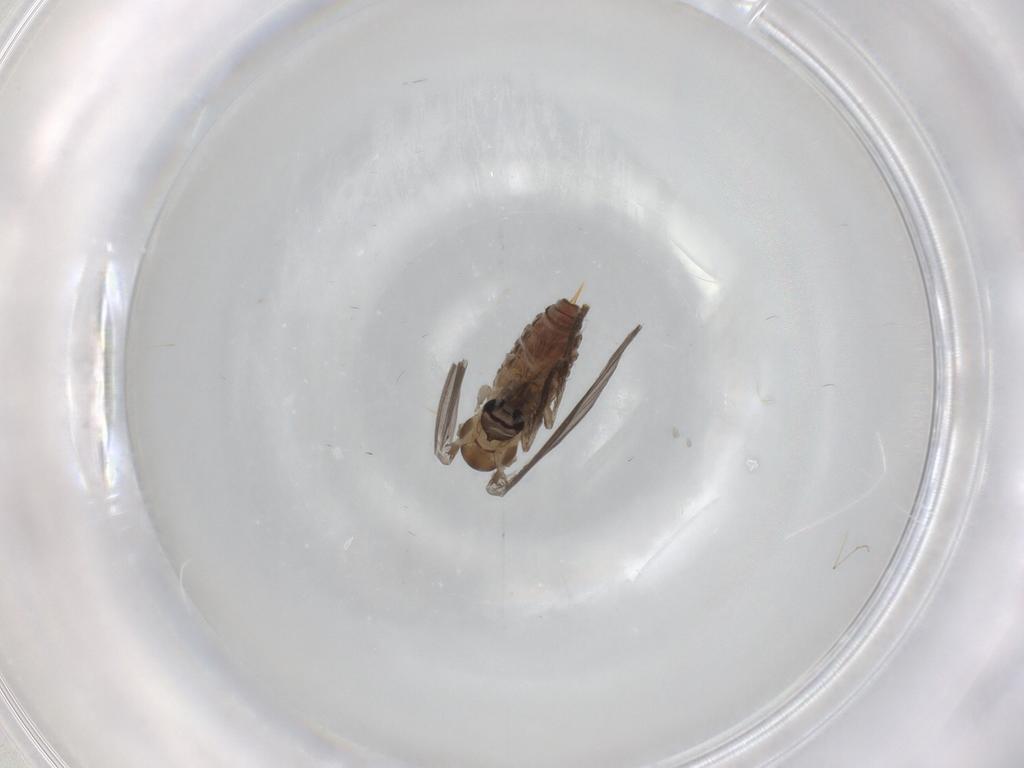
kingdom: Animalia
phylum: Arthropoda
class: Insecta
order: Diptera
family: Psychodidae
